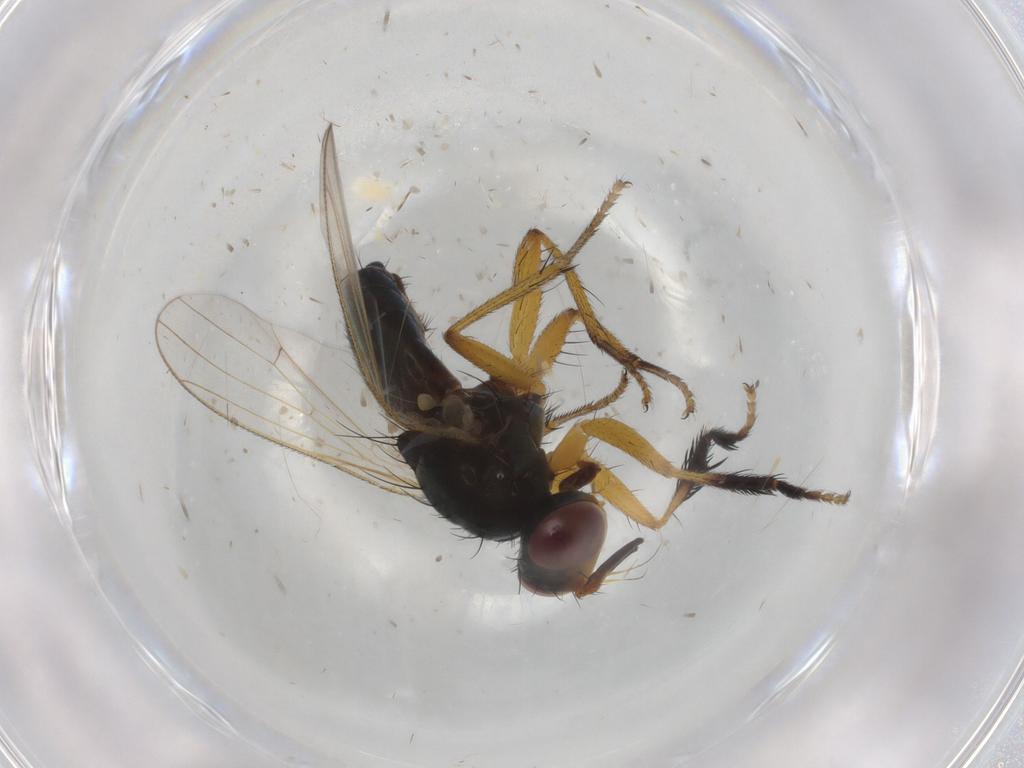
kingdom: Animalia
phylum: Arthropoda
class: Insecta
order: Diptera
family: Muscidae
